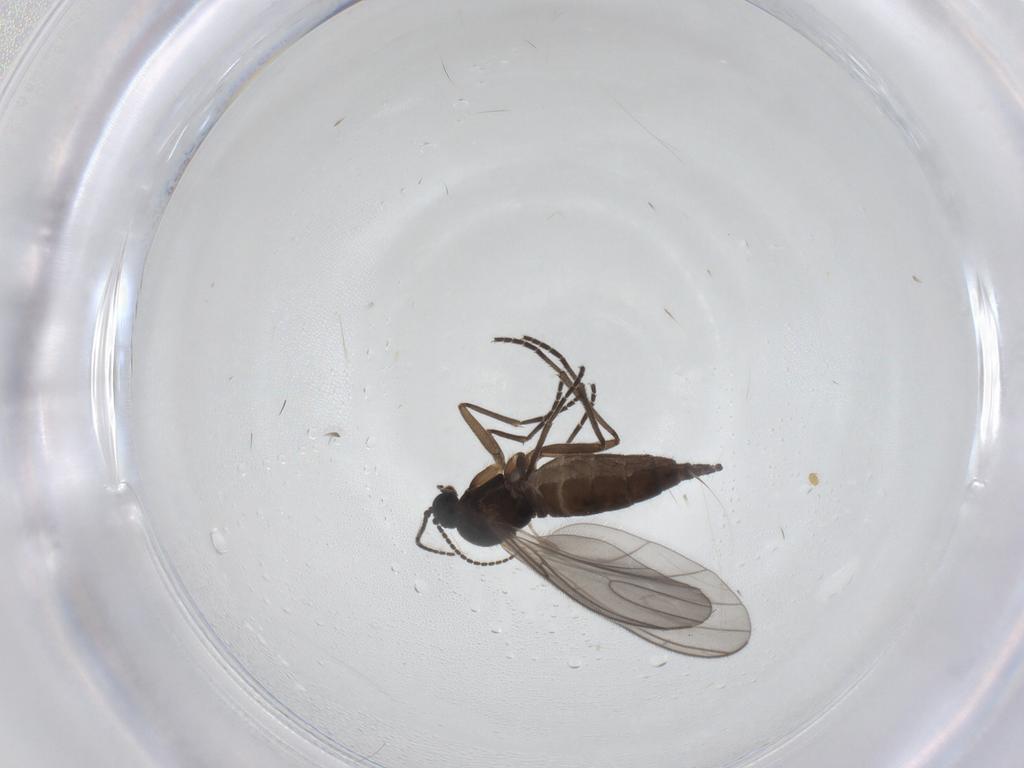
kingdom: Animalia
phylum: Arthropoda
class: Insecta
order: Diptera
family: Sciaridae
